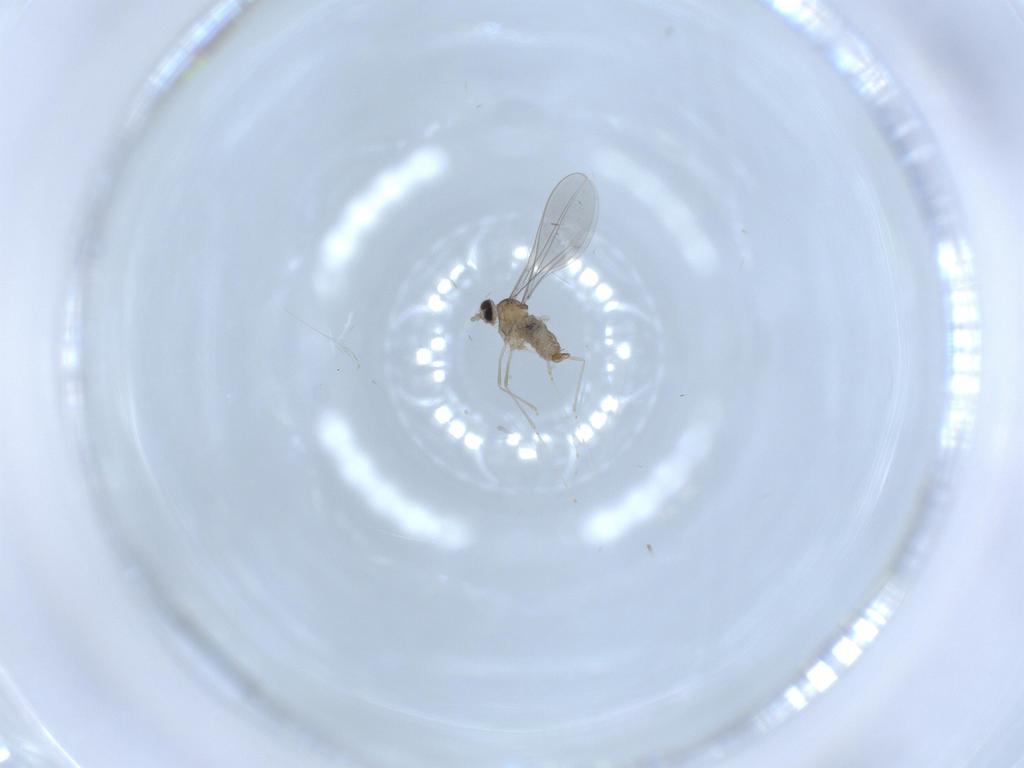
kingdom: Animalia
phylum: Arthropoda
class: Insecta
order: Diptera
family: Cecidomyiidae
